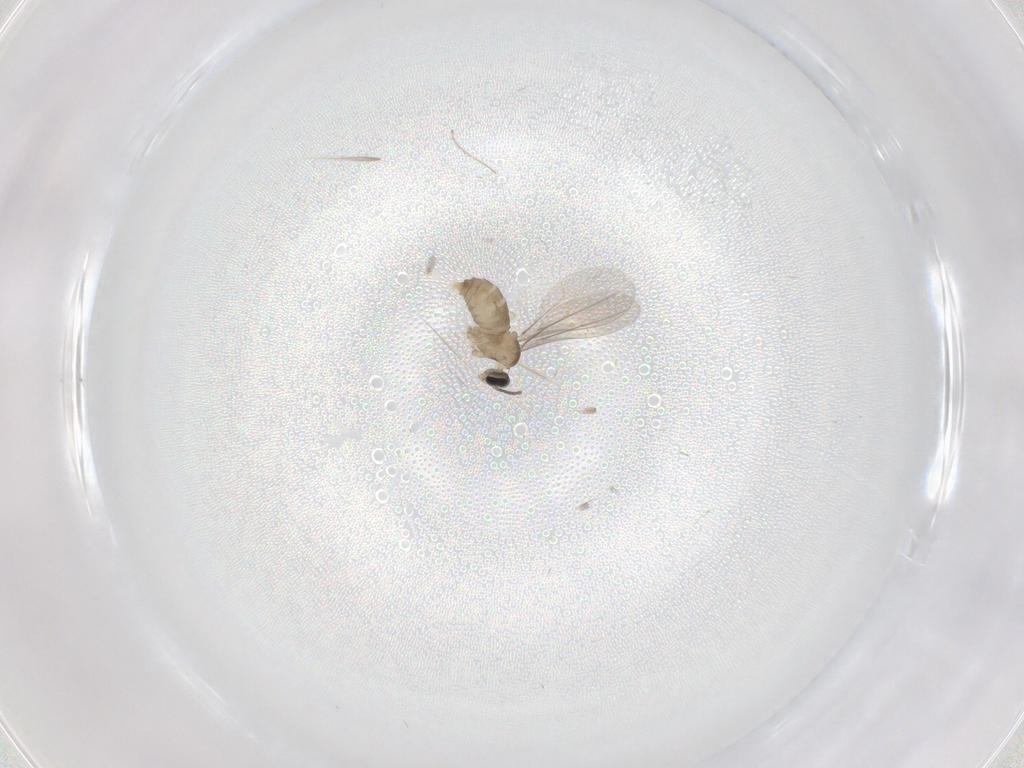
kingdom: Animalia
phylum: Arthropoda
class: Insecta
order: Diptera
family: Cecidomyiidae
